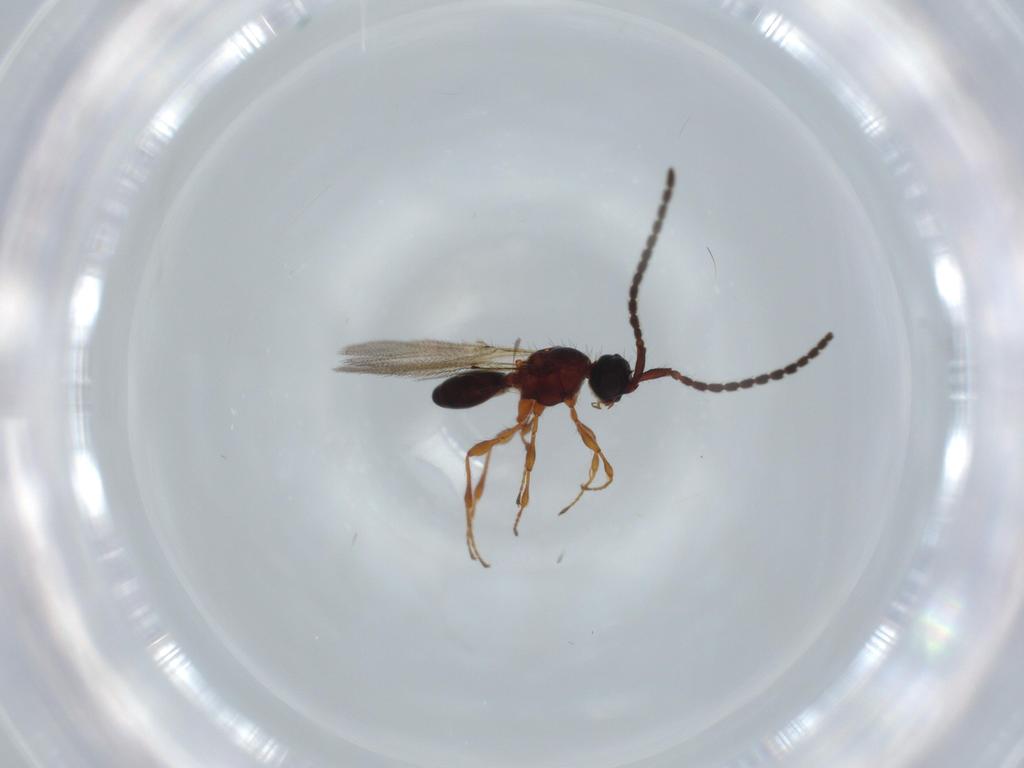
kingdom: Animalia
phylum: Arthropoda
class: Insecta
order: Hymenoptera
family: Diapriidae
